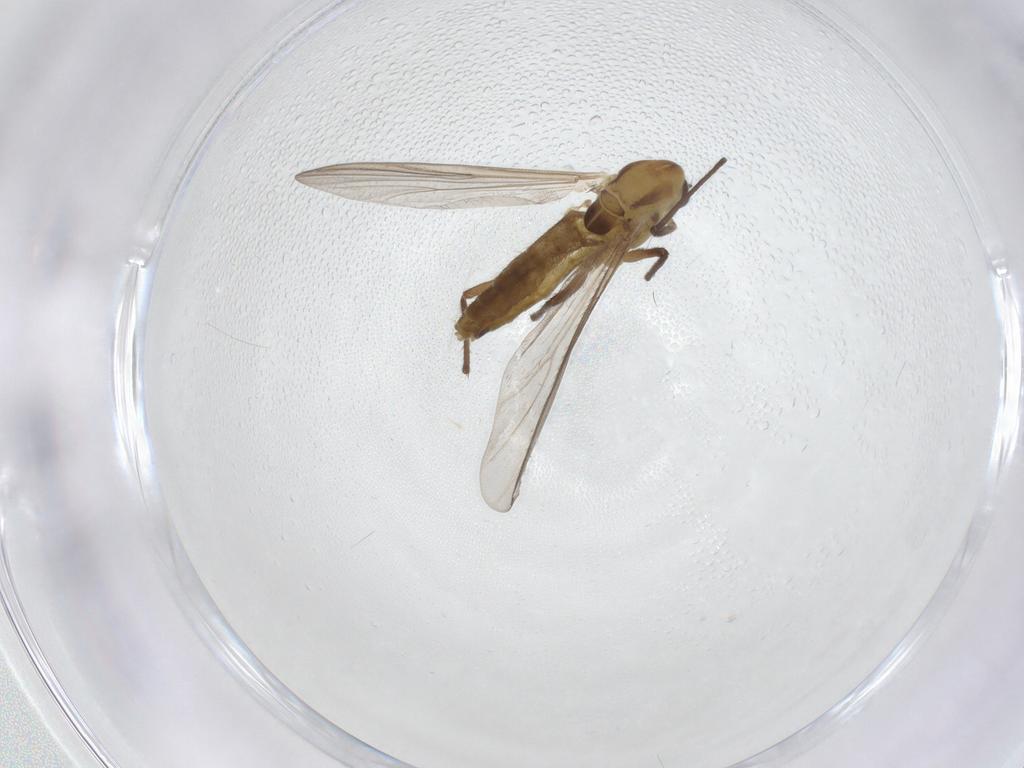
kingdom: Animalia
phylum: Arthropoda
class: Insecta
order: Diptera
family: Chironomidae
